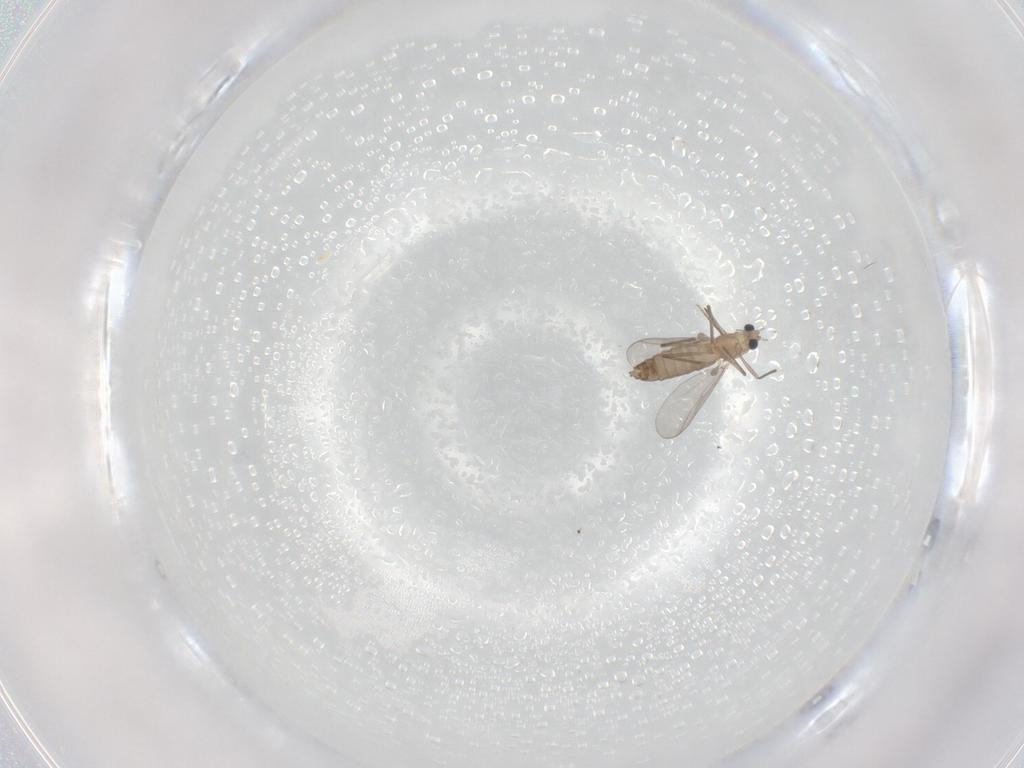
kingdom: Animalia
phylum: Arthropoda
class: Insecta
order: Diptera
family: Chironomidae
